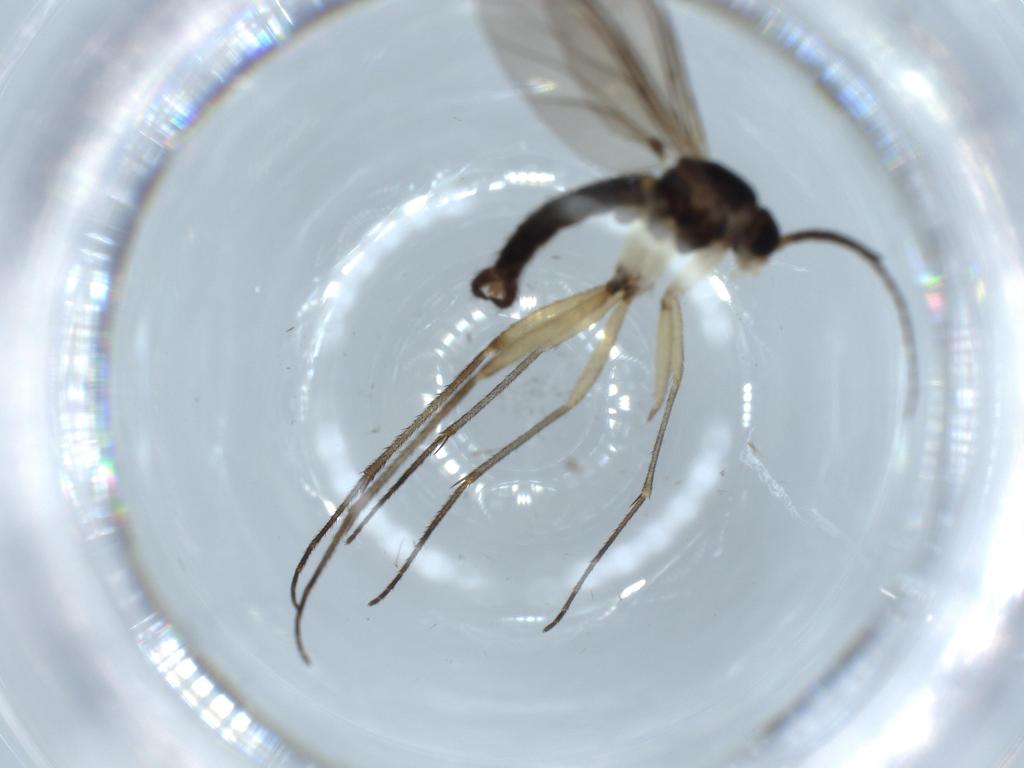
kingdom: Animalia
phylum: Arthropoda
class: Insecta
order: Diptera
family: Sciaridae
